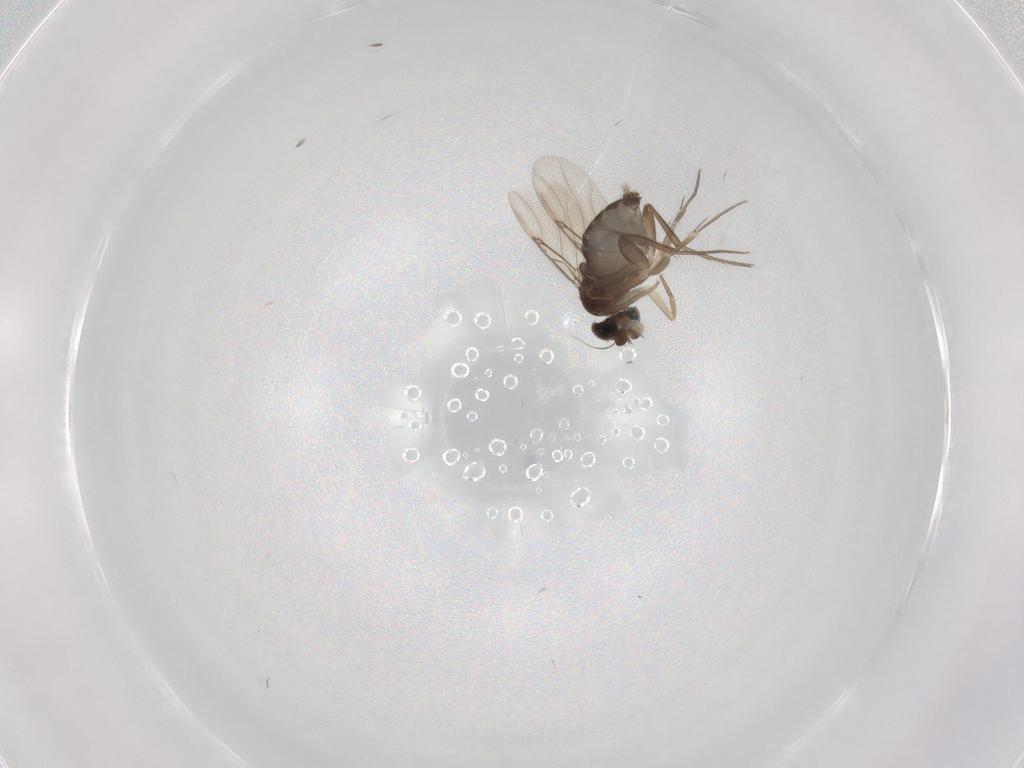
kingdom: Animalia
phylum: Arthropoda
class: Insecta
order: Diptera
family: Phoridae
